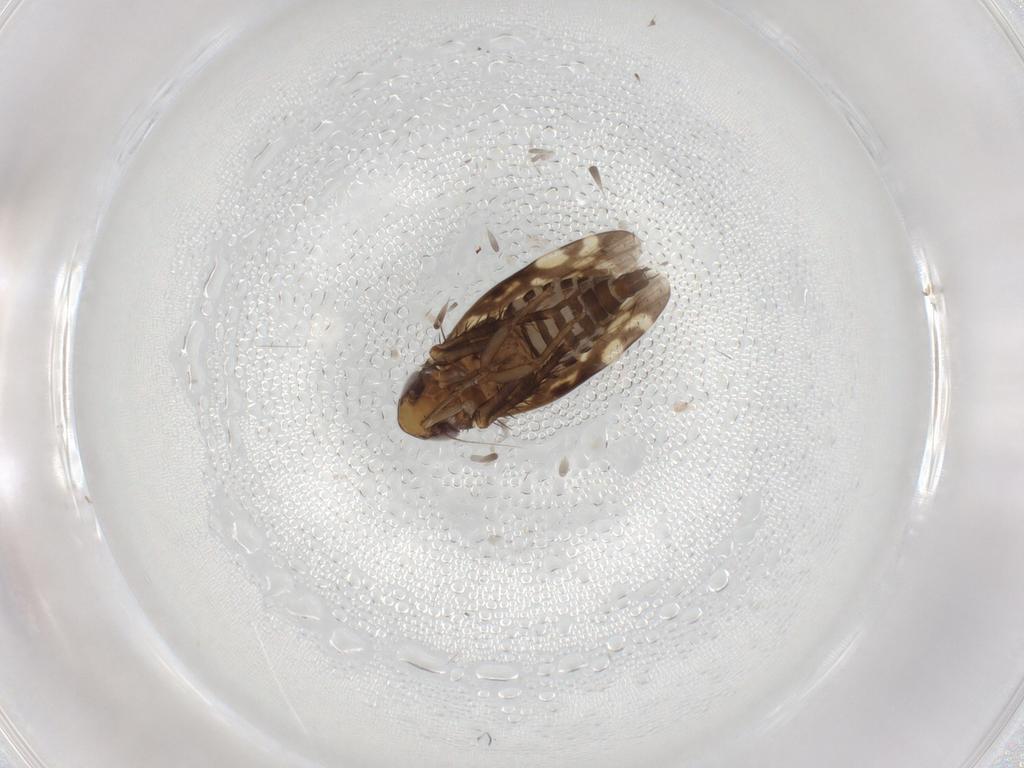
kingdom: Animalia
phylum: Arthropoda
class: Insecta
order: Hemiptera
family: Cicadellidae
